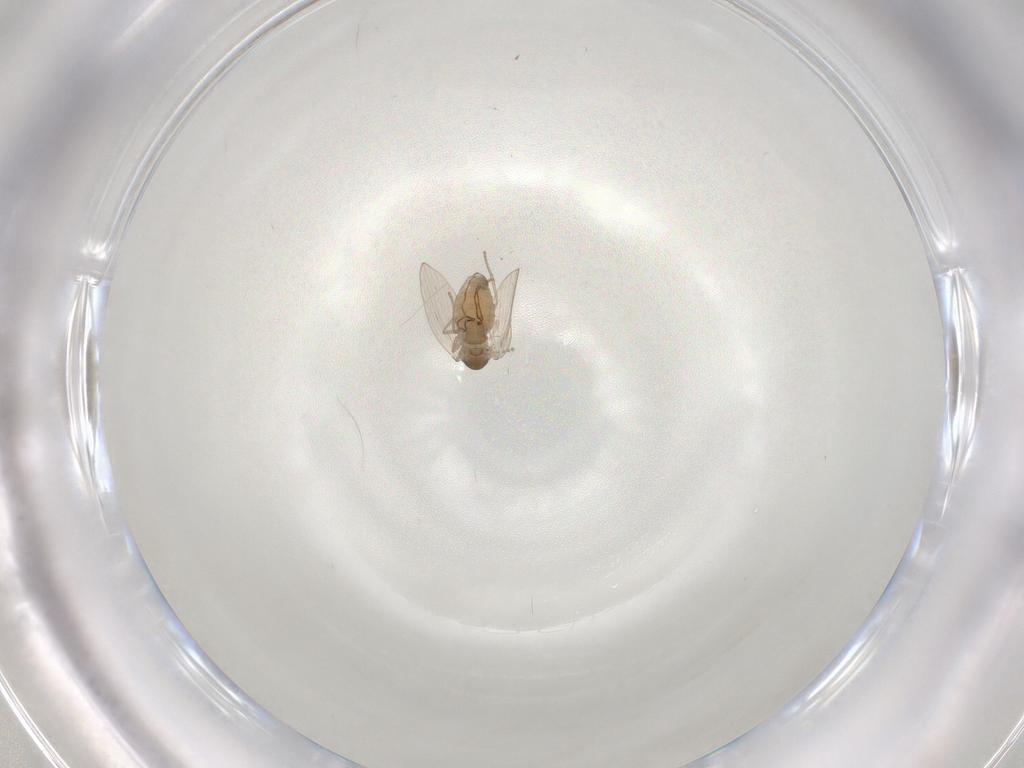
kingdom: Animalia
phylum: Arthropoda
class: Insecta
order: Diptera
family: Psychodidae
